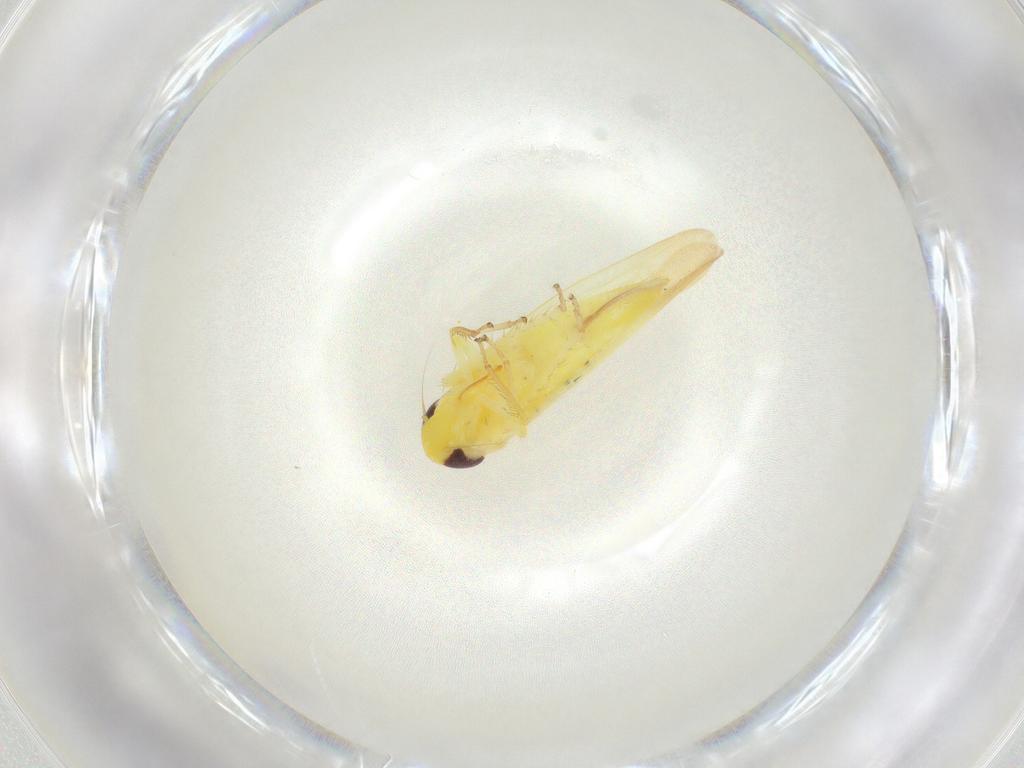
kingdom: Animalia
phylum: Arthropoda
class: Insecta
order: Hemiptera
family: Cicadellidae
